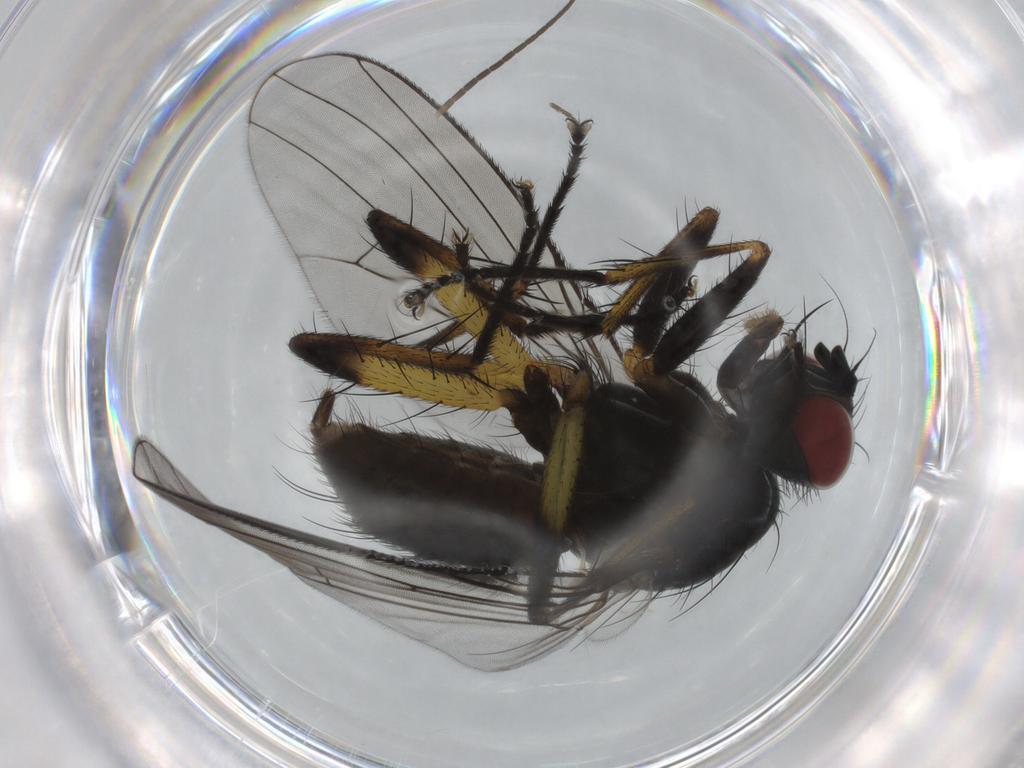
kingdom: Animalia
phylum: Arthropoda
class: Insecta
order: Diptera
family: Muscidae
